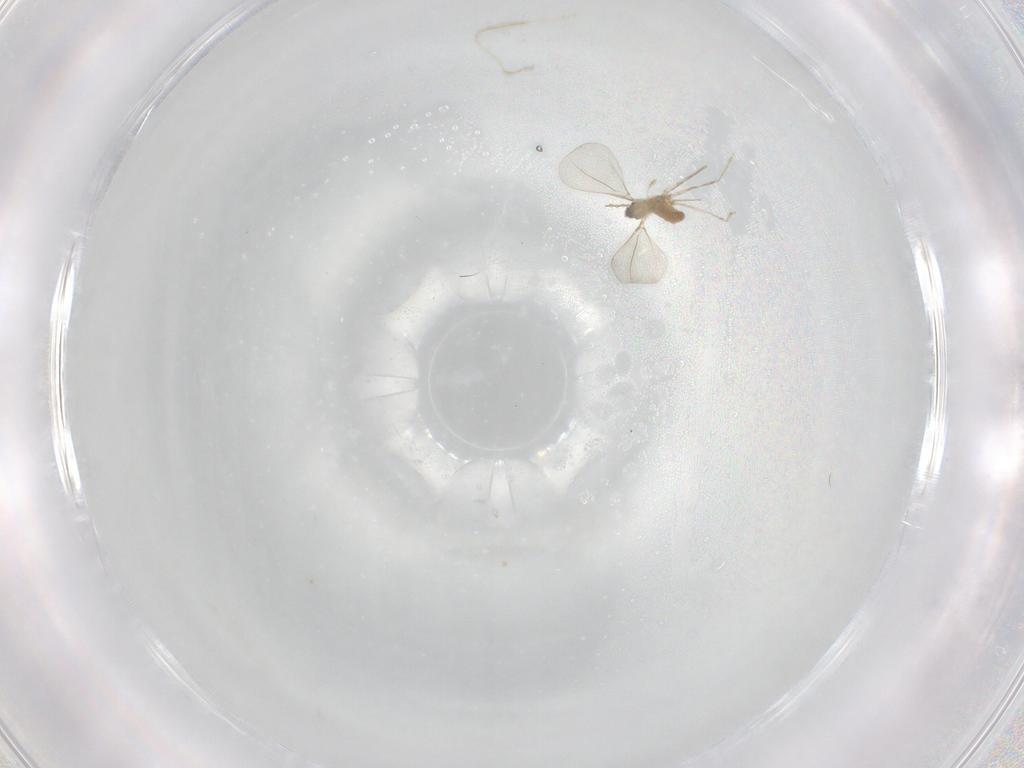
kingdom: Animalia
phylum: Arthropoda
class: Insecta
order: Diptera
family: Cecidomyiidae
